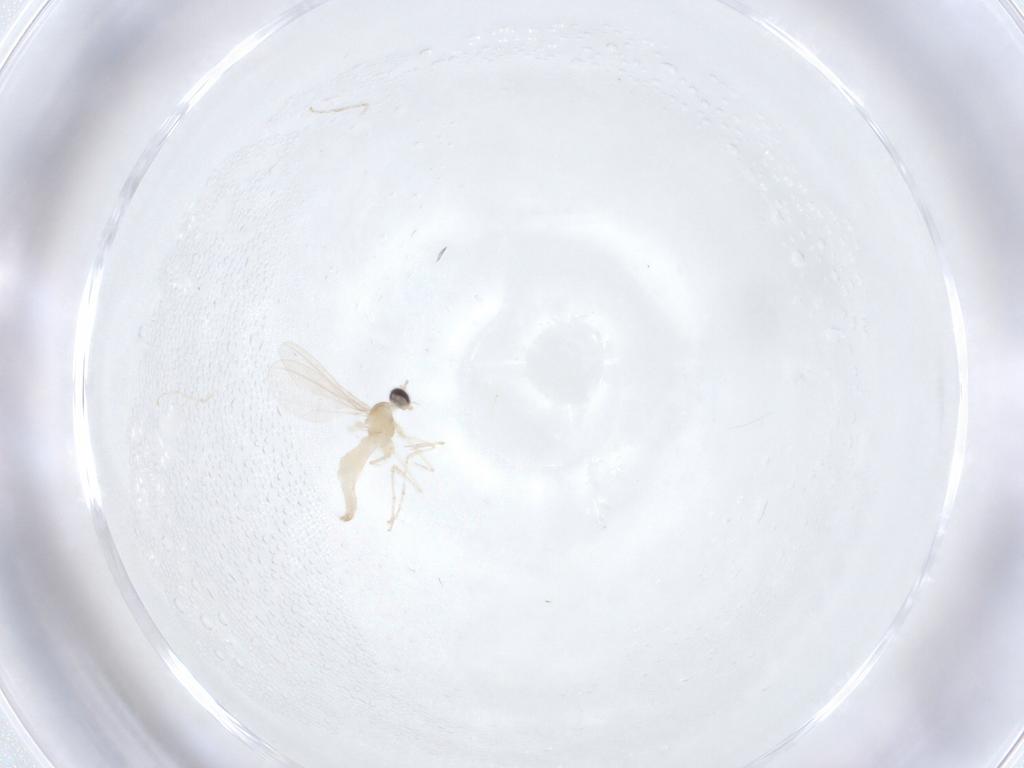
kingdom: Animalia
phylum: Arthropoda
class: Insecta
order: Diptera
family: Cecidomyiidae
